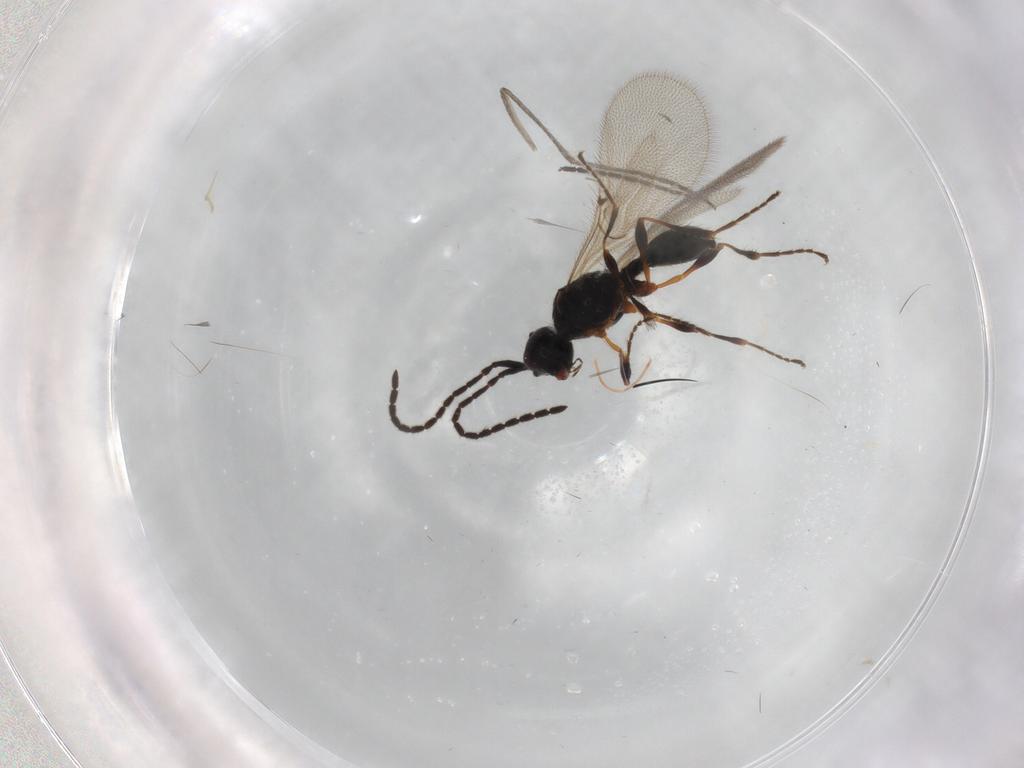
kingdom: Animalia
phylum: Arthropoda
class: Insecta
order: Hymenoptera
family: Diapriidae
